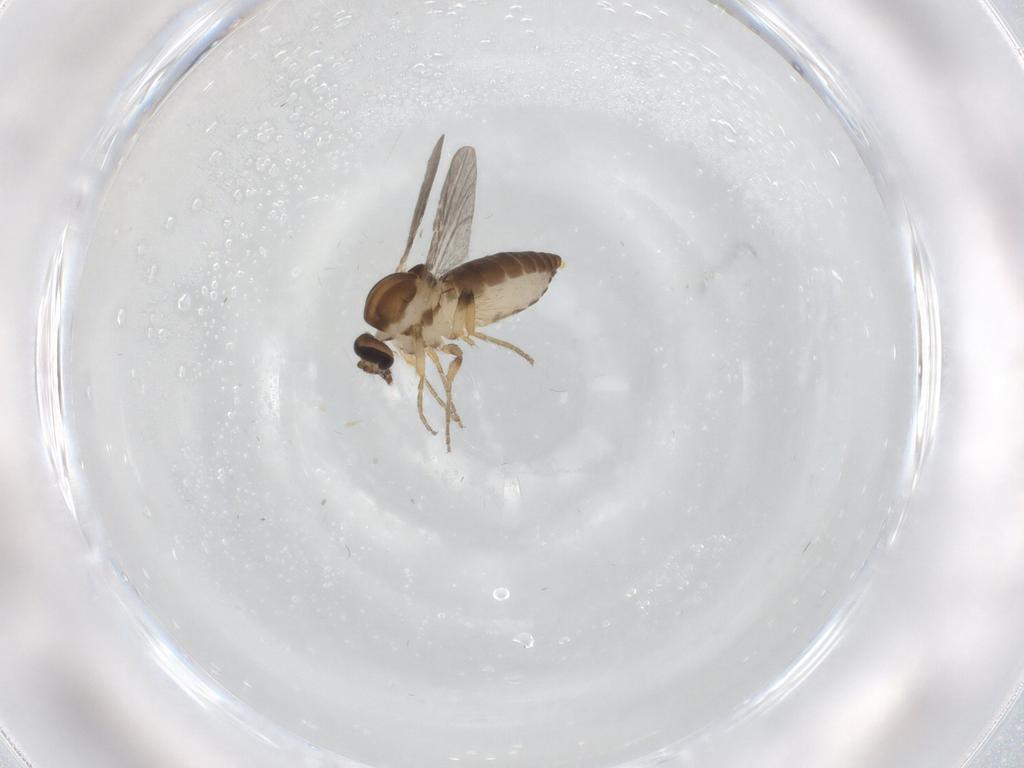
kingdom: Animalia
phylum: Arthropoda
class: Insecta
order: Diptera
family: Ceratopogonidae
